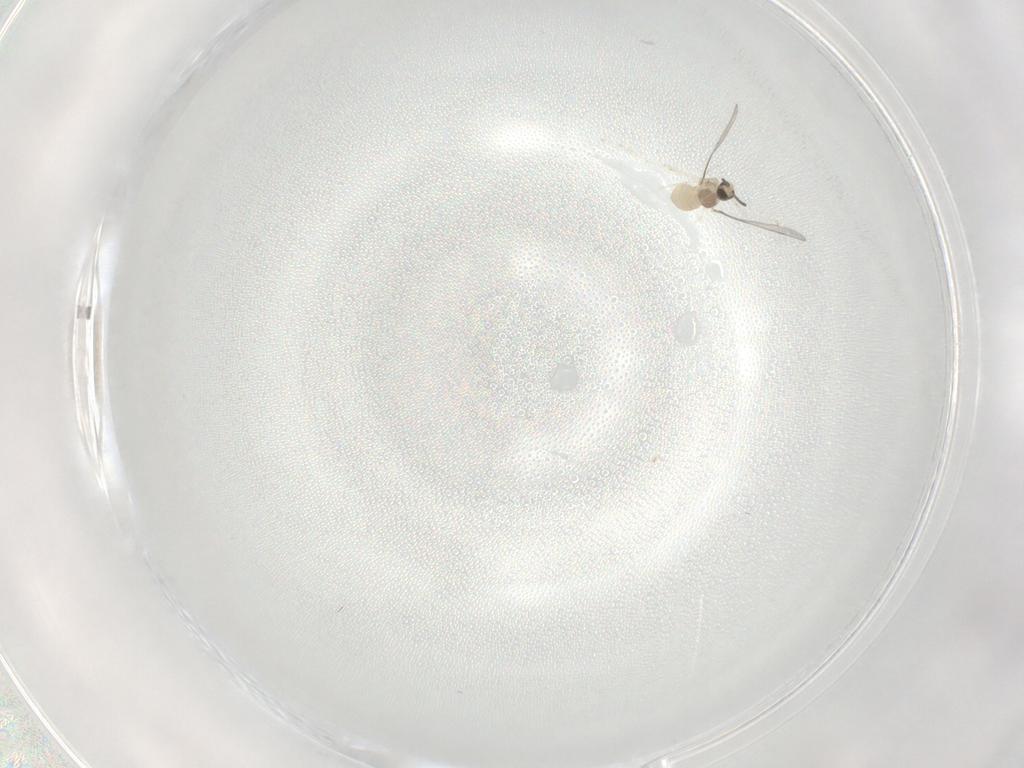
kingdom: Animalia
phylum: Arthropoda
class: Insecta
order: Diptera
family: Cecidomyiidae
